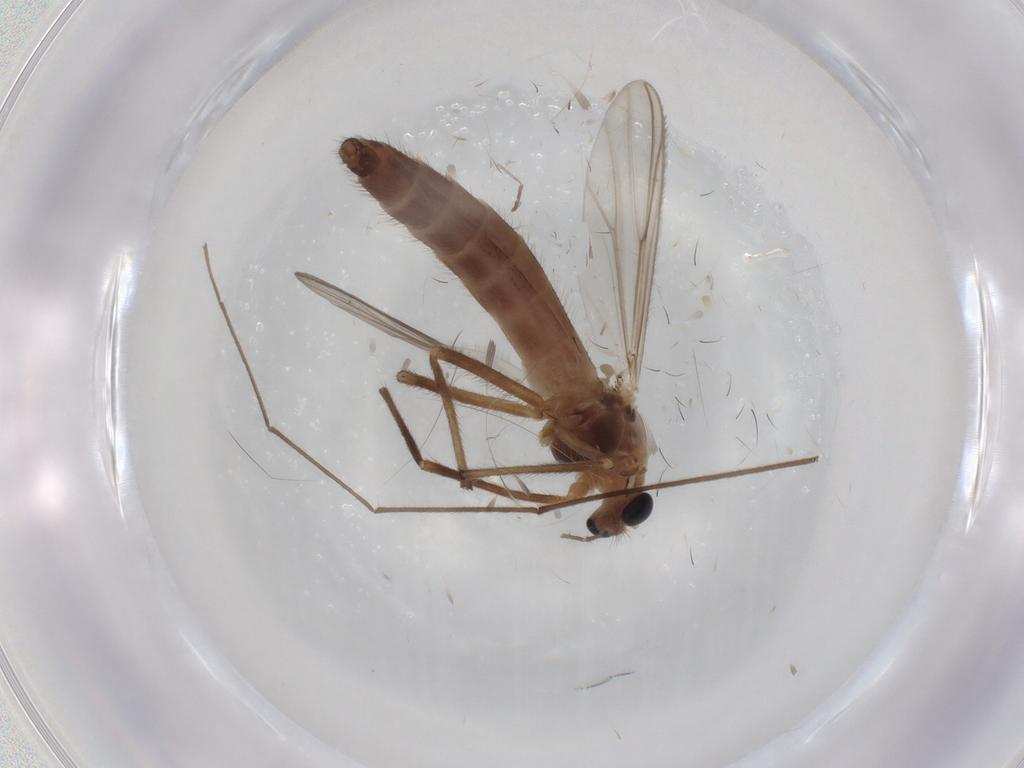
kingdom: Animalia
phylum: Arthropoda
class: Insecta
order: Diptera
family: Chironomidae
